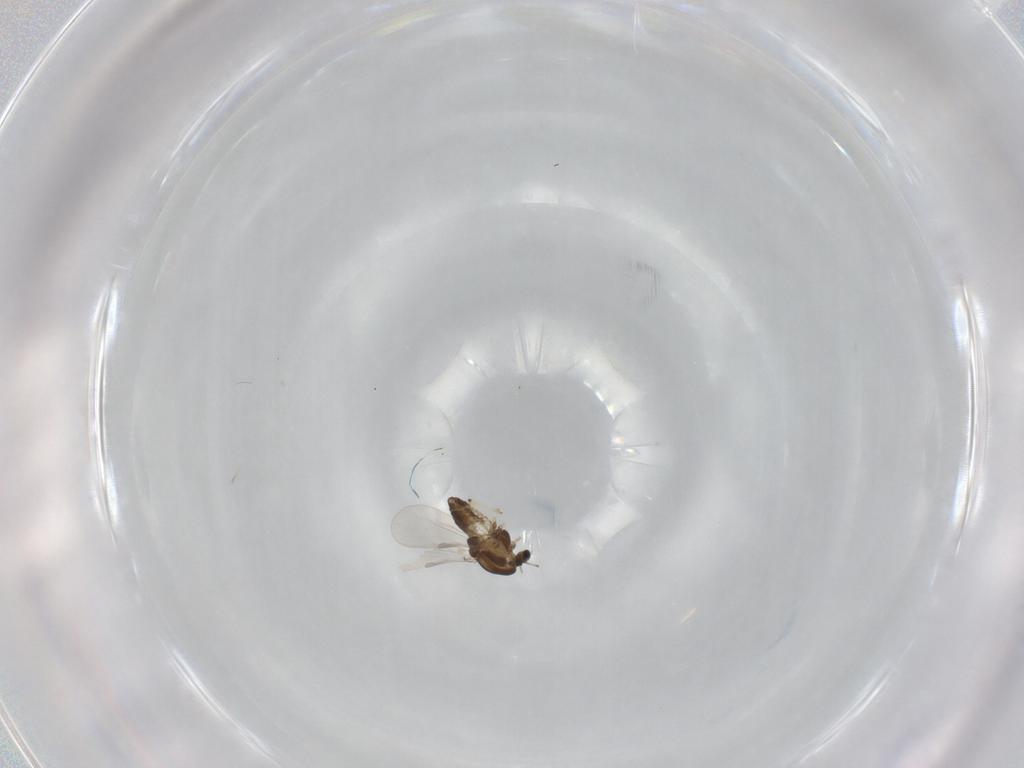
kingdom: Animalia
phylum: Arthropoda
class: Insecta
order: Diptera
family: Chironomidae
